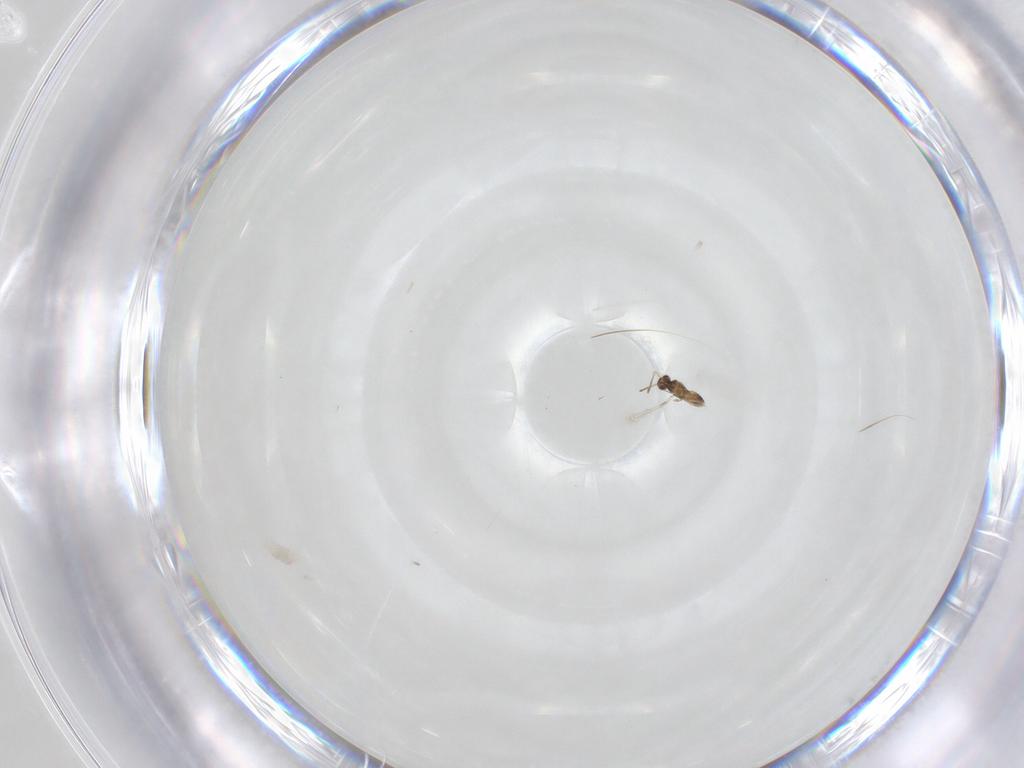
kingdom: Animalia
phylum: Arthropoda
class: Insecta
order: Hymenoptera
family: Mymaridae
